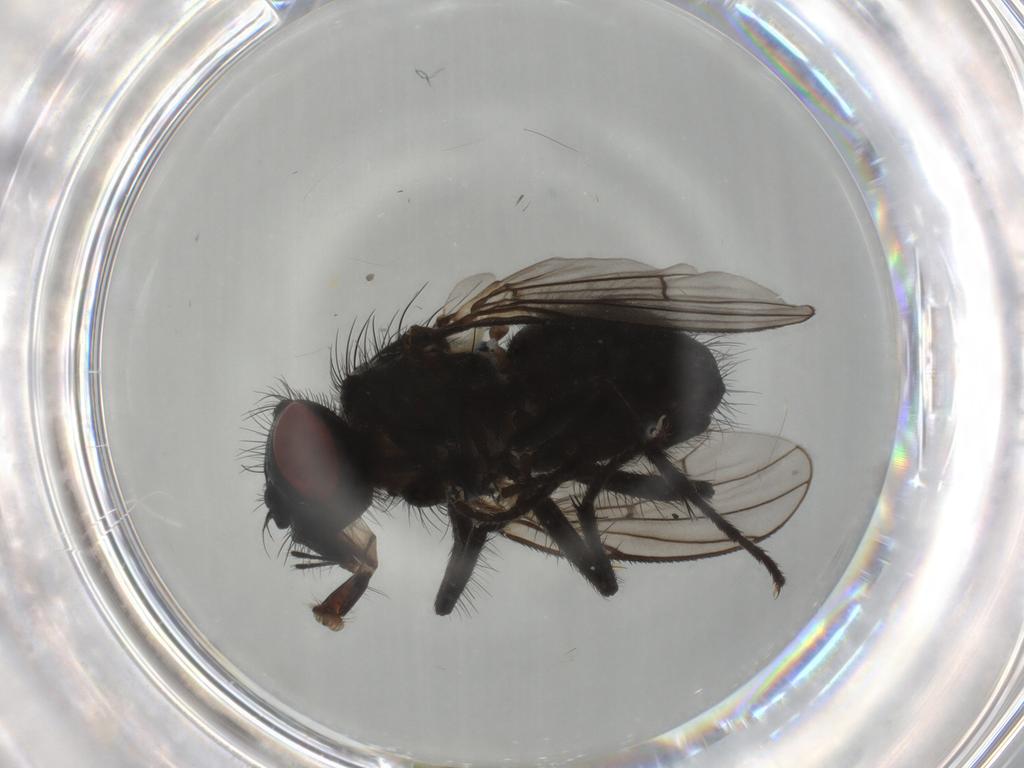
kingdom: Animalia
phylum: Arthropoda
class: Insecta
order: Diptera
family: Muscidae
